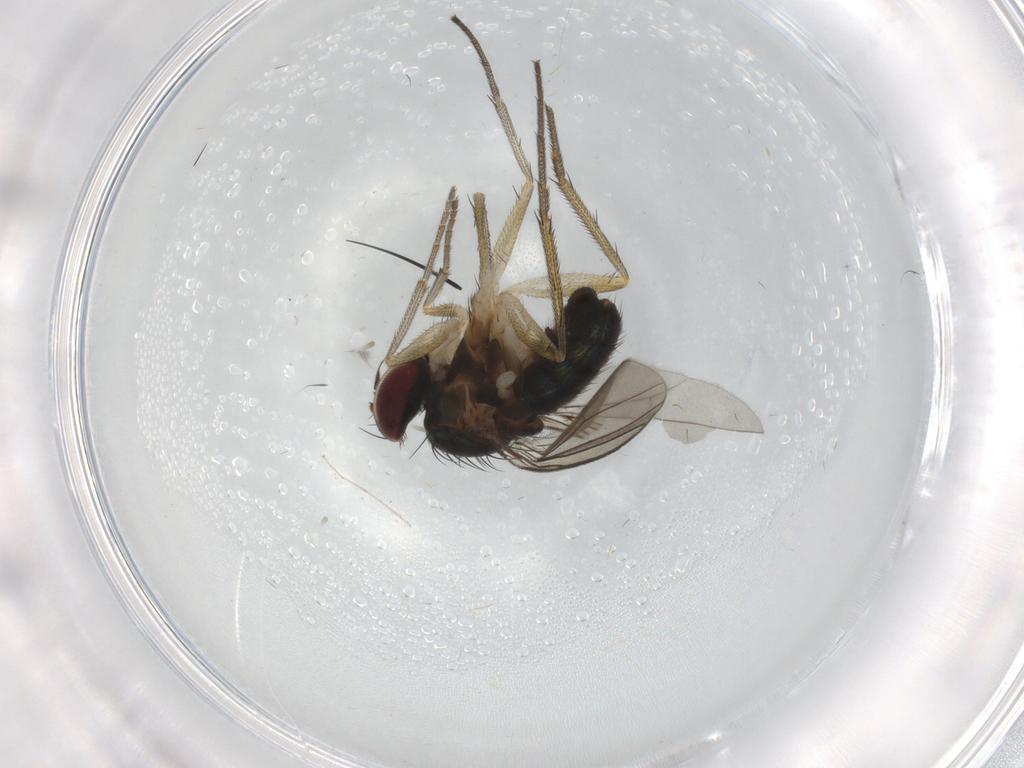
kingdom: Animalia
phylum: Arthropoda
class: Insecta
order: Diptera
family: Dolichopodidae
